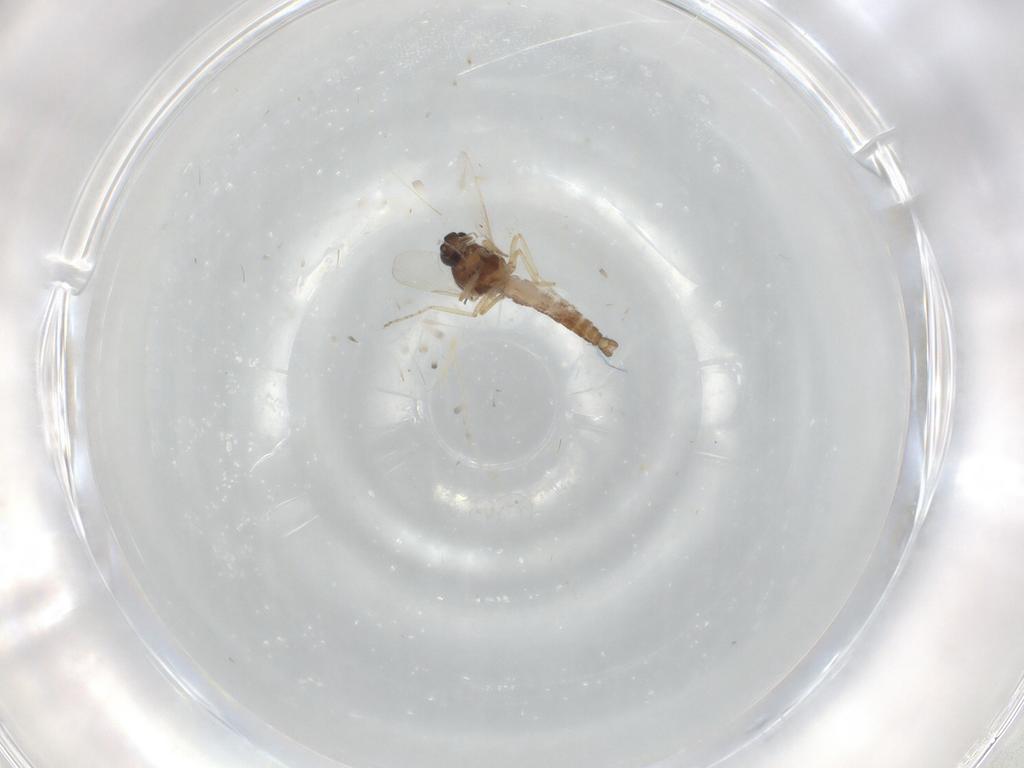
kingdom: Animalia
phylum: Arthropoda
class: Insecta
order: Diptera
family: Ceratopogonidae
